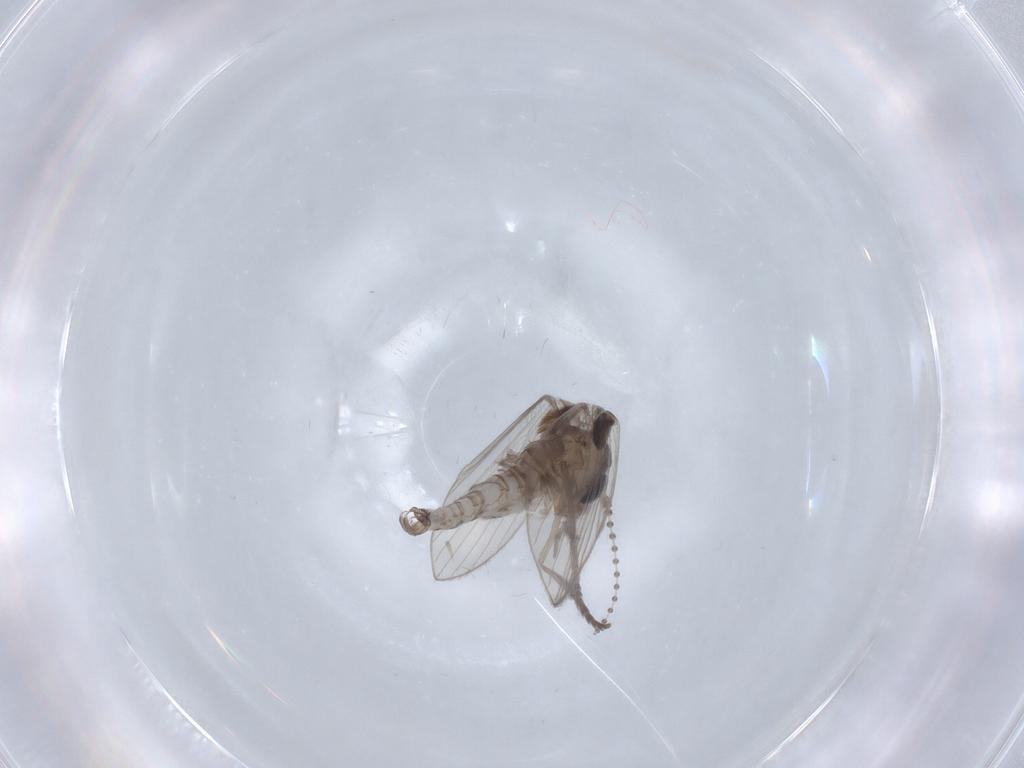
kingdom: Animalia
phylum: Arthropoda
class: Insecta
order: Diptera
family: Psychodidae
